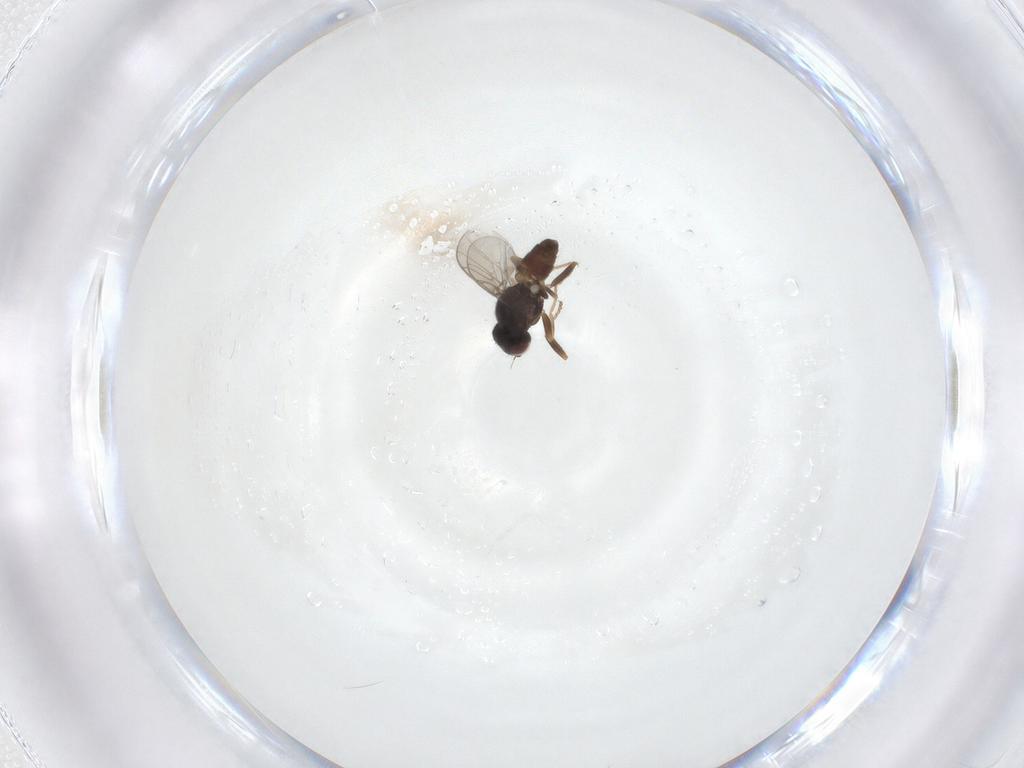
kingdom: Animalia
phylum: Arthropoda
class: Insecta
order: Diptera
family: Chloropidae
